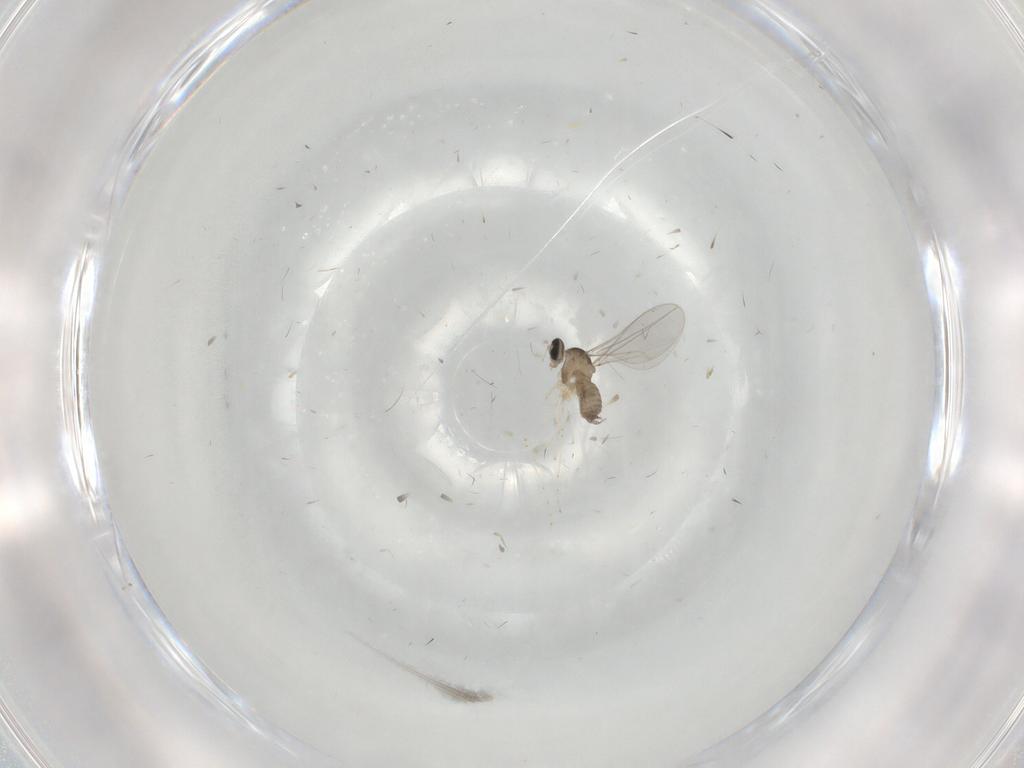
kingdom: Animalia
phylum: Arthropoda
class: Insecta
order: Diptera
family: Cecidomyiidae
